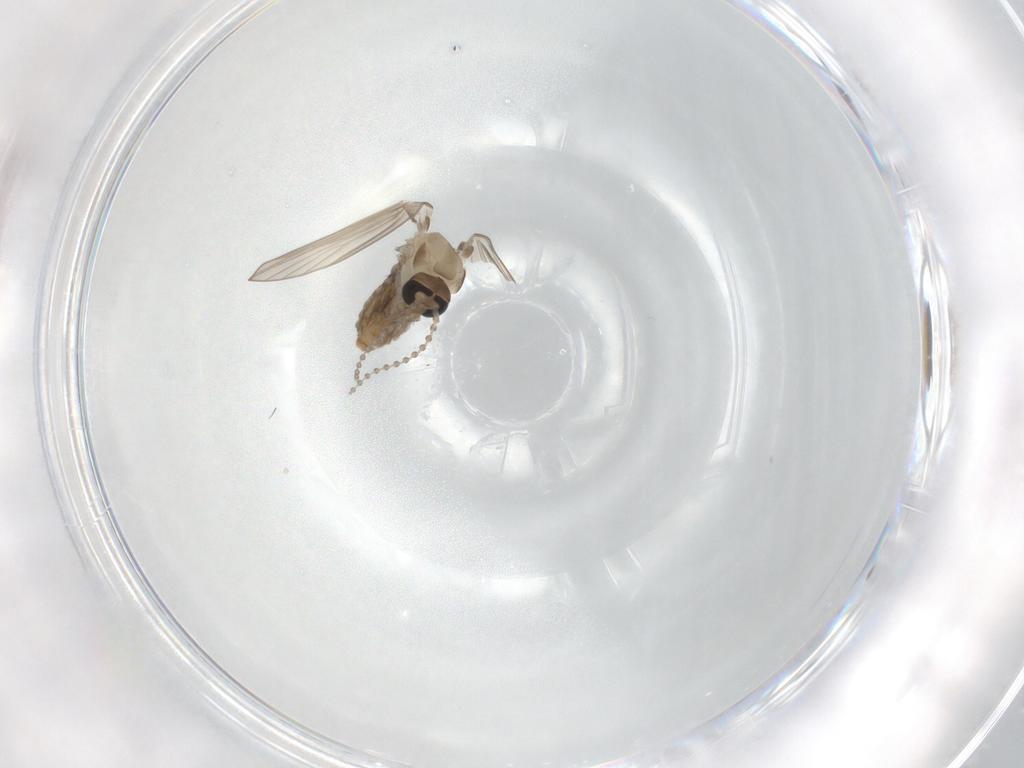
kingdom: Animalia
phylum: Arthropoda
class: Insecta
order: Diptera
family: Psychodidae
